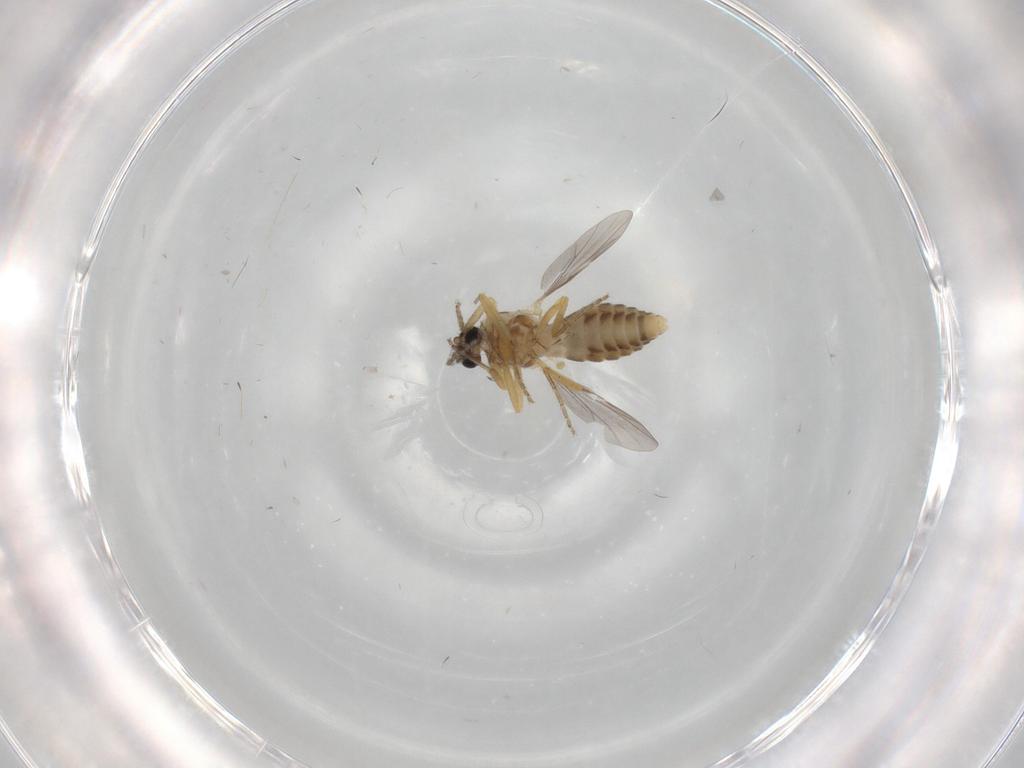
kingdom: Animalia
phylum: Arthropoda
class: Insecta
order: Diptera
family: Ceratopogonidae
